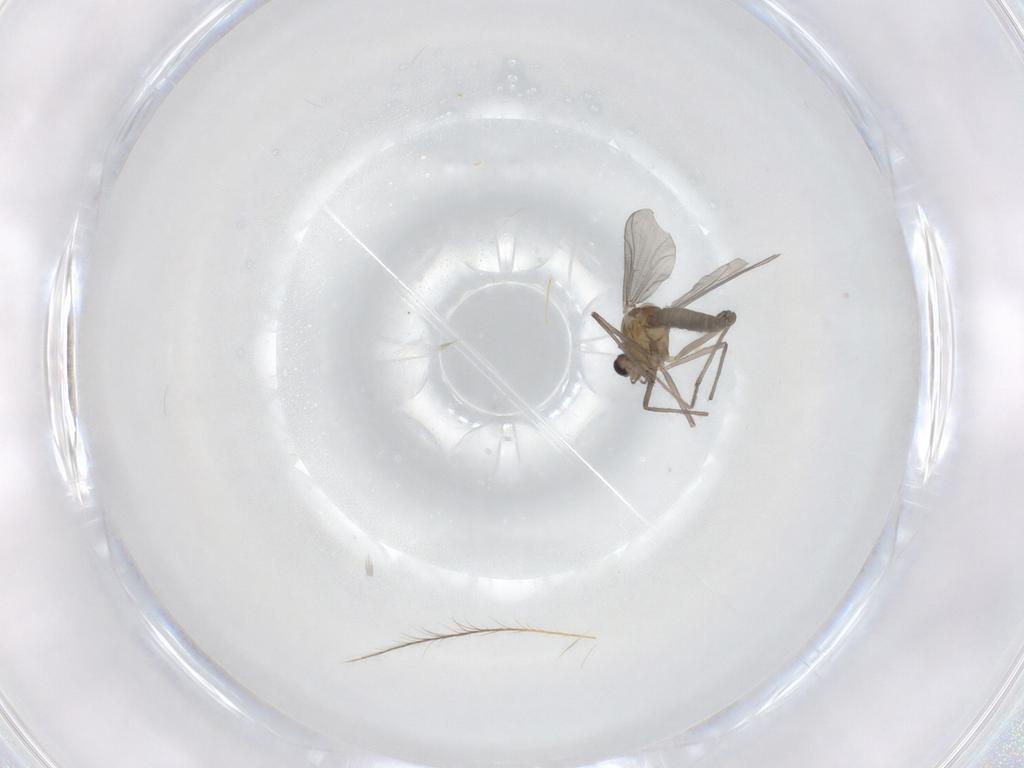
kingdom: Animalia
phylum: Arthropoda
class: Insecta
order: Diptera
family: Chironomidae
